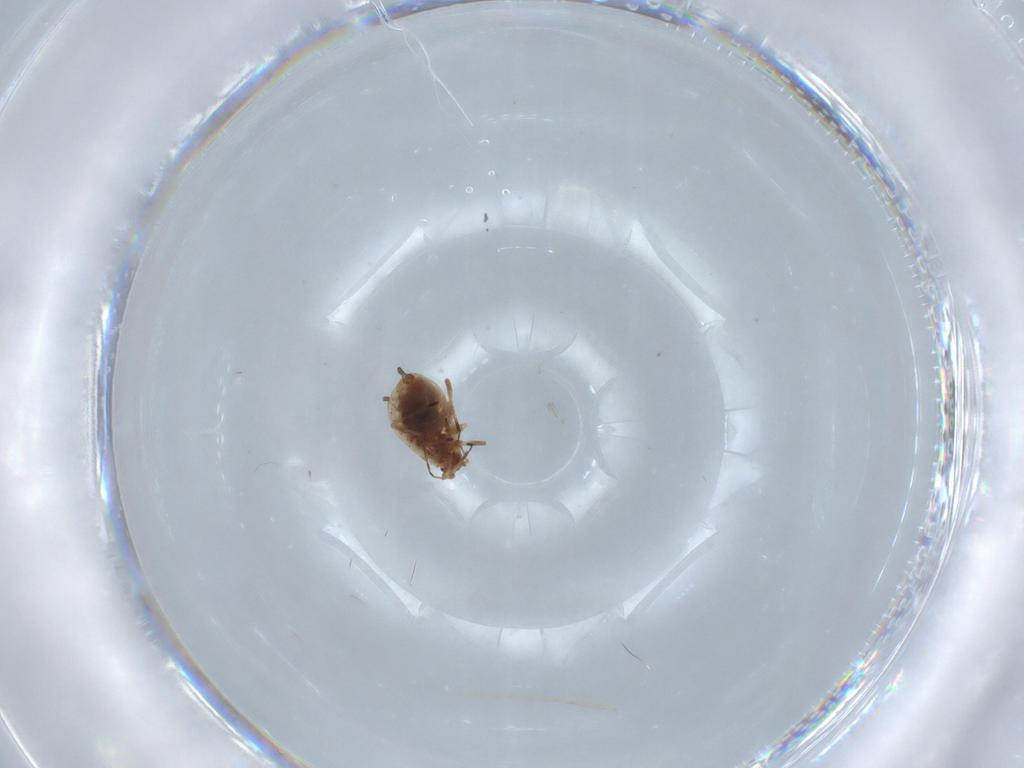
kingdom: Animalia
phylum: Arthropoda
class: Insecta
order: Hemiptera
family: Aphididae
